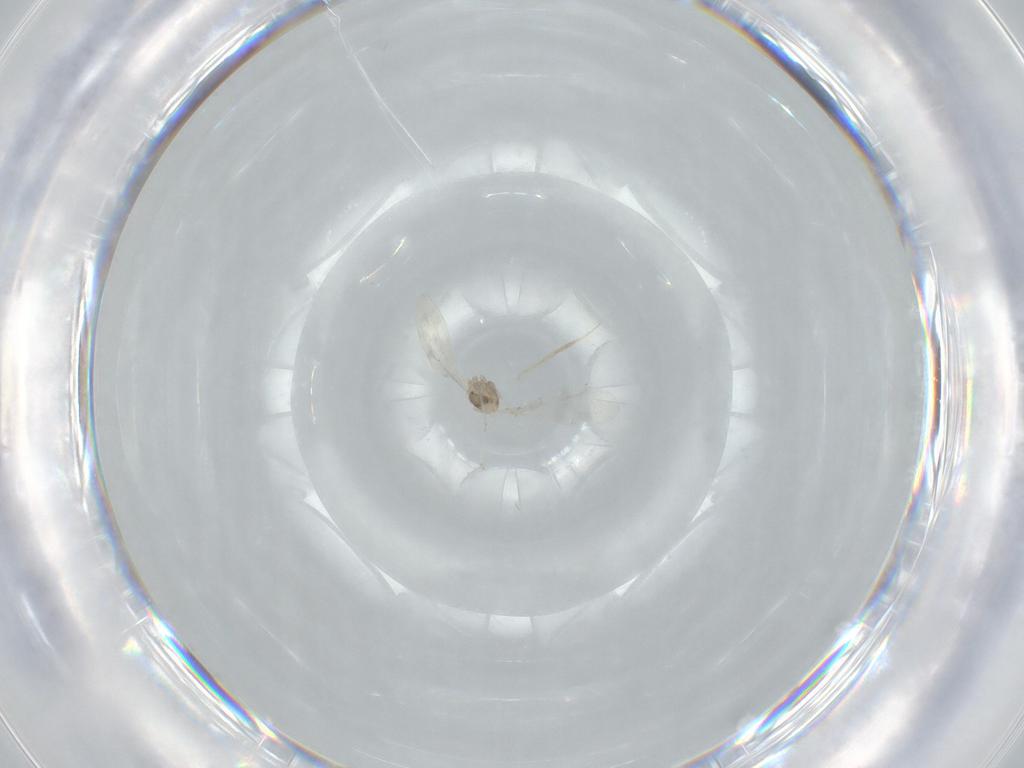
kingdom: Animalia
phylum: Arthropoda
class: Insecta
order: Diptera
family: Cecidomyiidae
